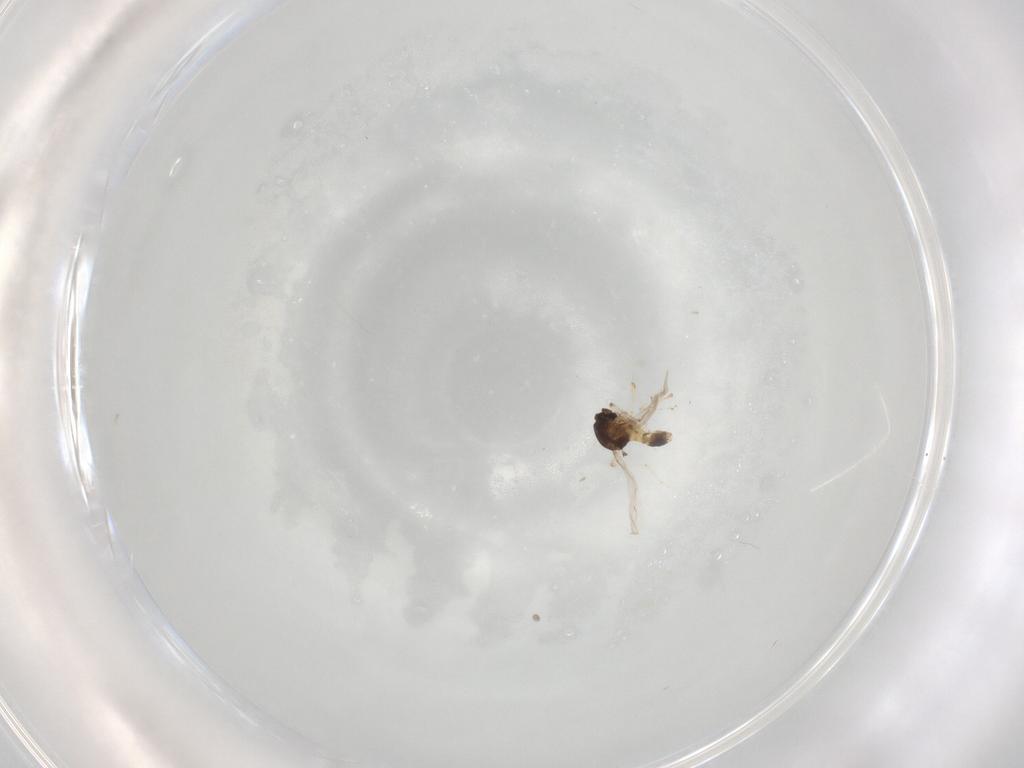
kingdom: Animalia
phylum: Arthropoda
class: Insecta
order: Diptera
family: Ceratopogonidae
